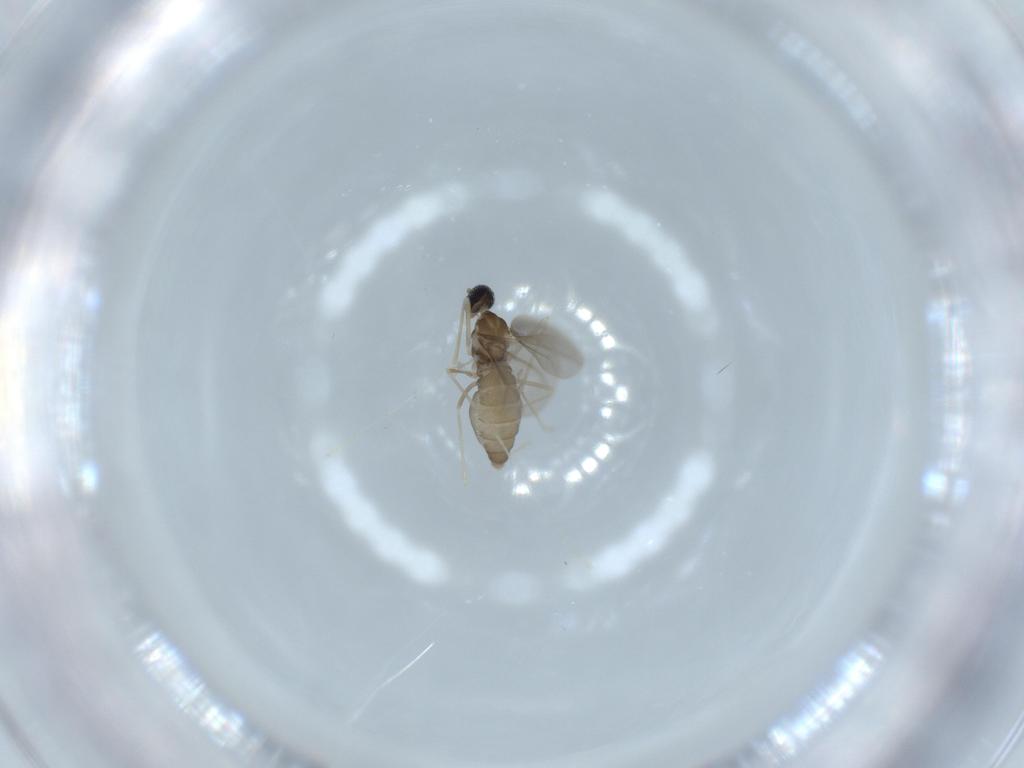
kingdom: Animalia
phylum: Arthropoda
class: Insecta
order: Diptera
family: Cecidomyiidae
